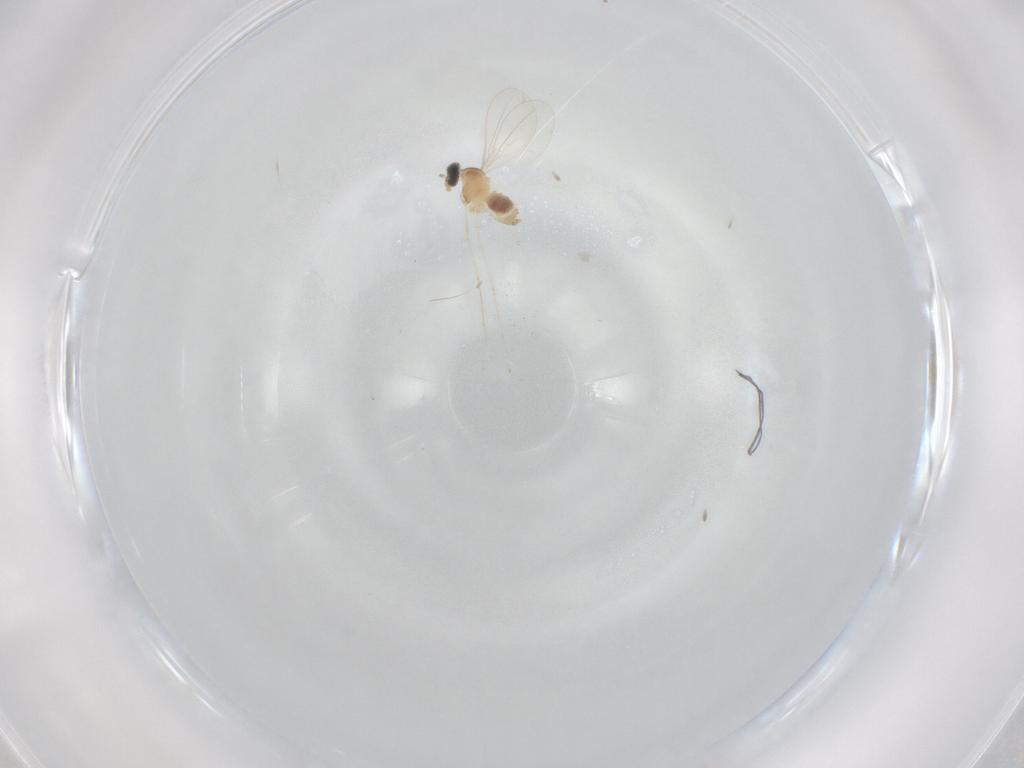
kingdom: Animalia
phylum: Arthropoda
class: Insecta
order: Diptera
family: Cecidomyiidae
